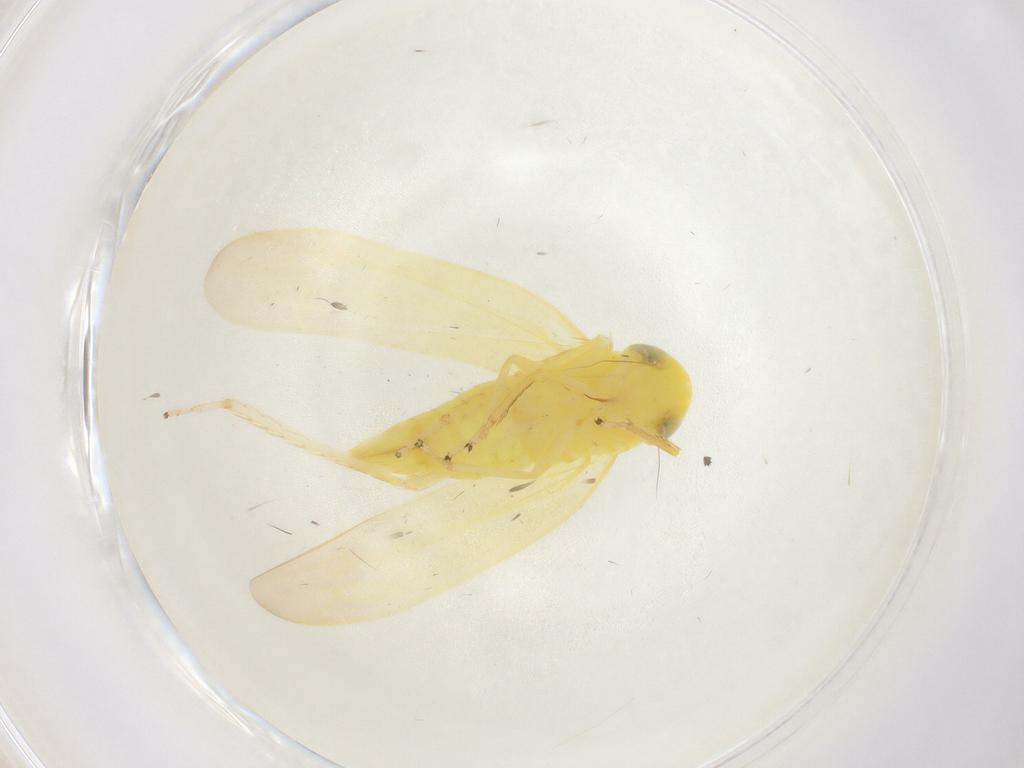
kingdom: Animalia
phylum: Arthropoda
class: Insecta
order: Hemiptera
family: Cicadellidae
